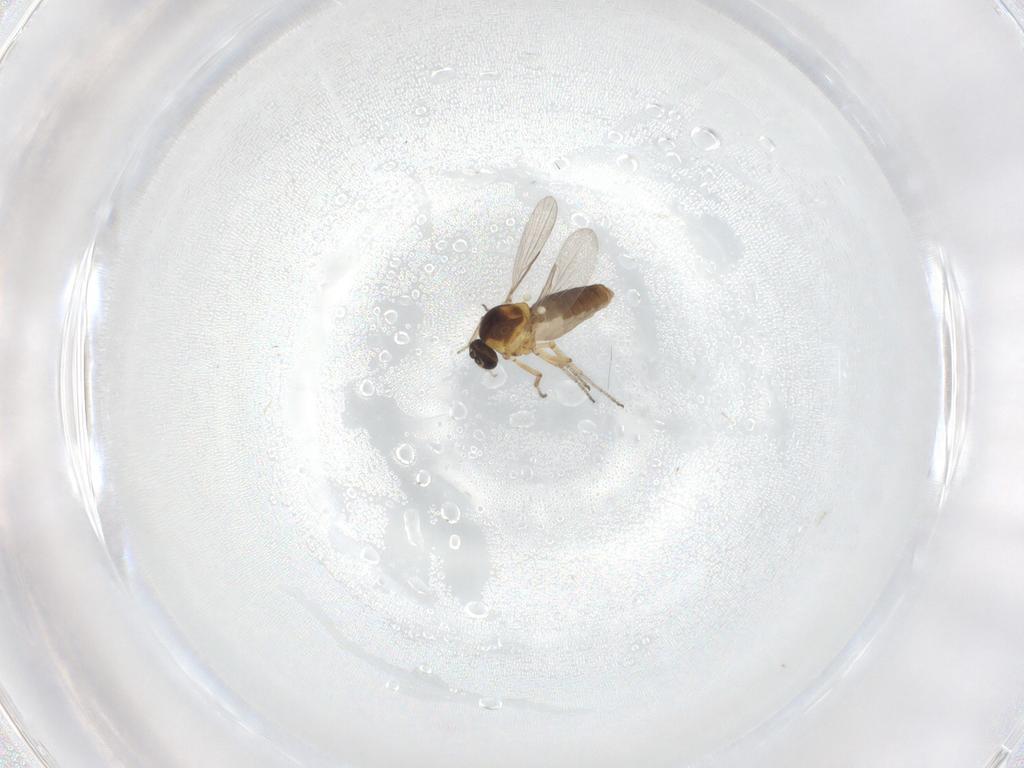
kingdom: Animalia
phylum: Arthropoda
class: Insecta
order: Diptera
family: Ceratopogonidae
